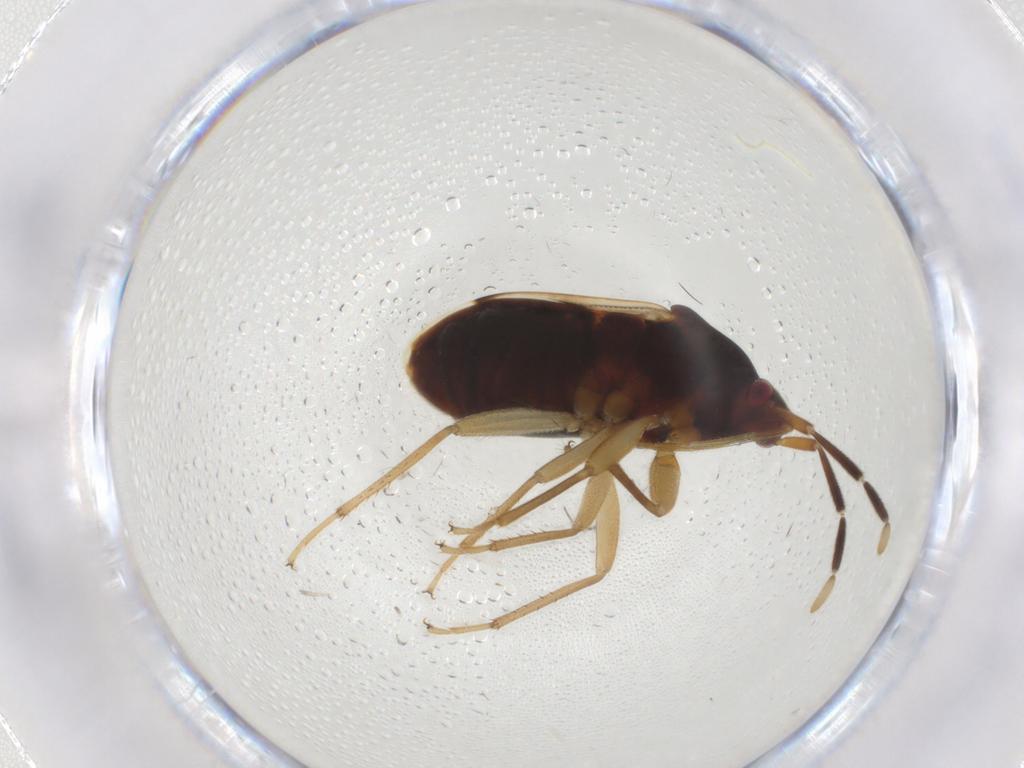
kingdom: Animalia
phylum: Arthropoda
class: Insecta
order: Hemiptera
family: Rhyparochromidae
